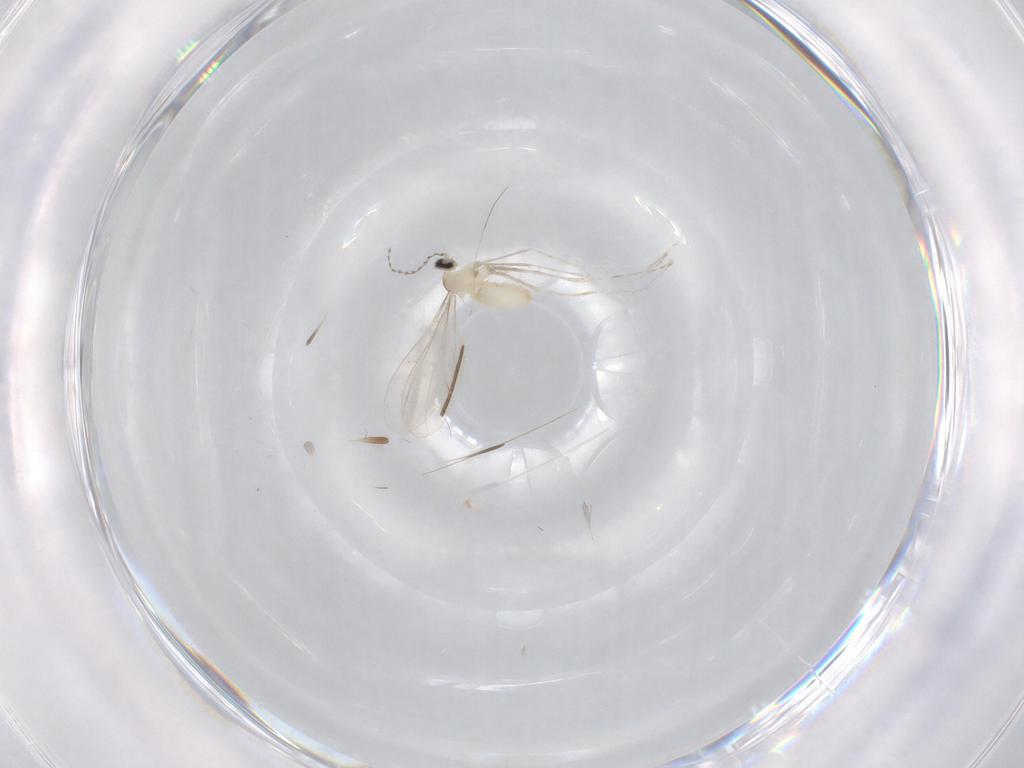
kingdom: Animalia
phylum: Arthropoda
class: Insecta
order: Diptera
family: Cecidomyiidae
